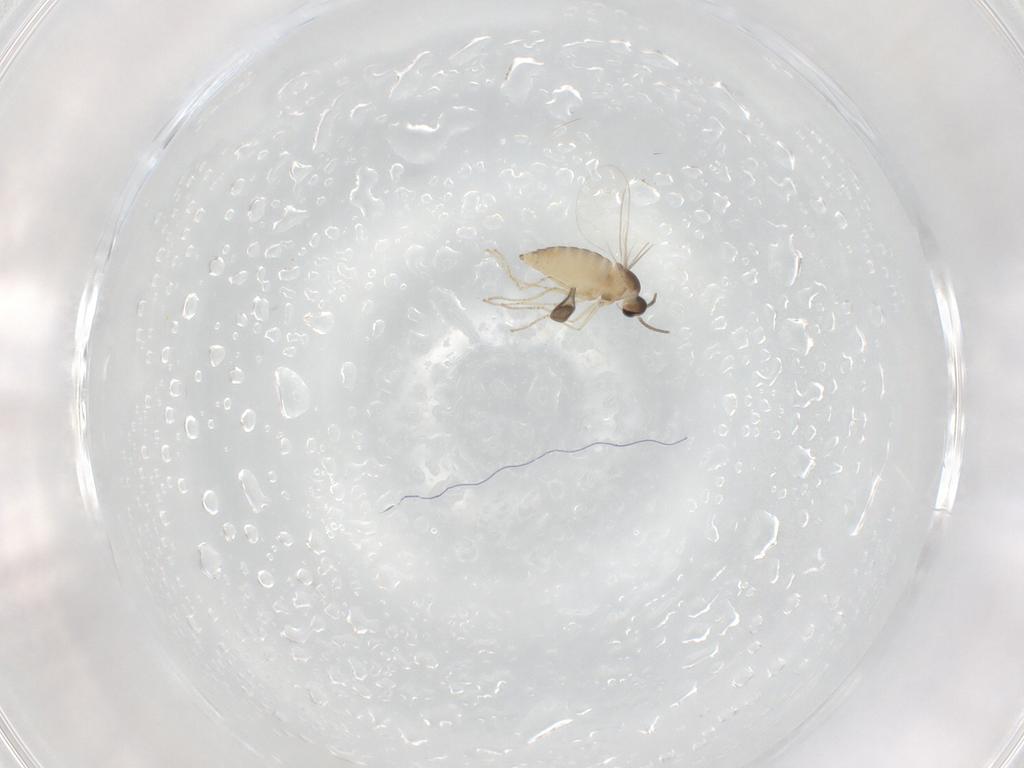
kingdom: Animalia
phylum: Arthropoda
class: Insecta
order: Diptera
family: Cecidomyiidae
